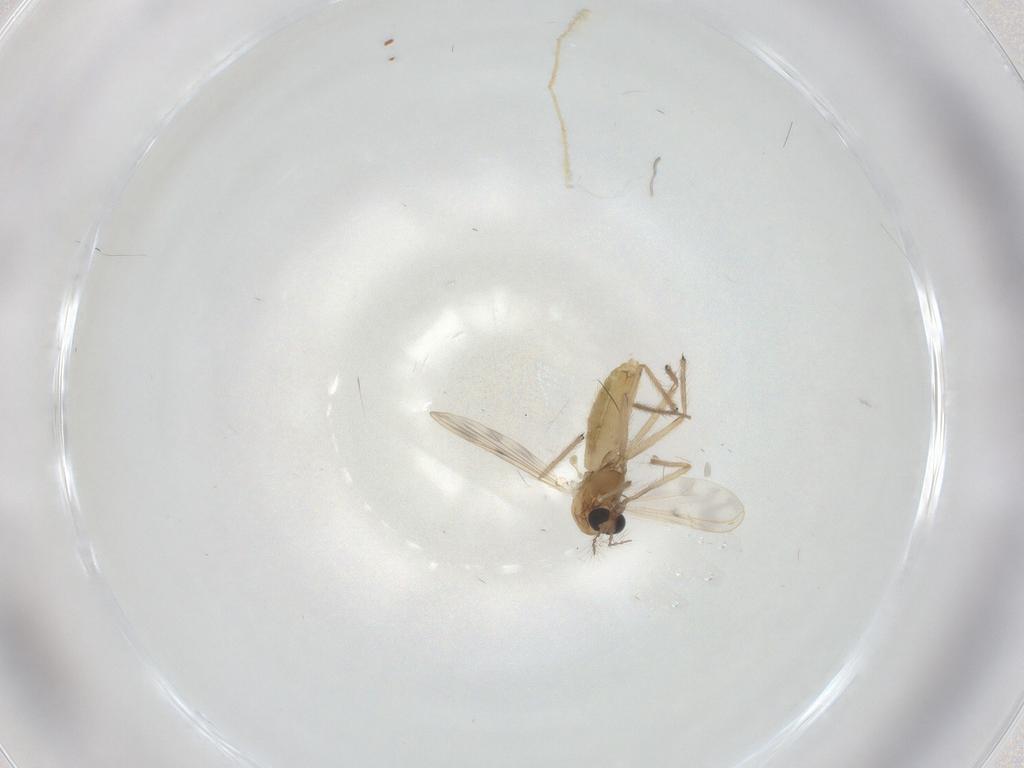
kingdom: Animalia
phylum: Arthropoda
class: Insecta
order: Diptera
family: Chironomidae
